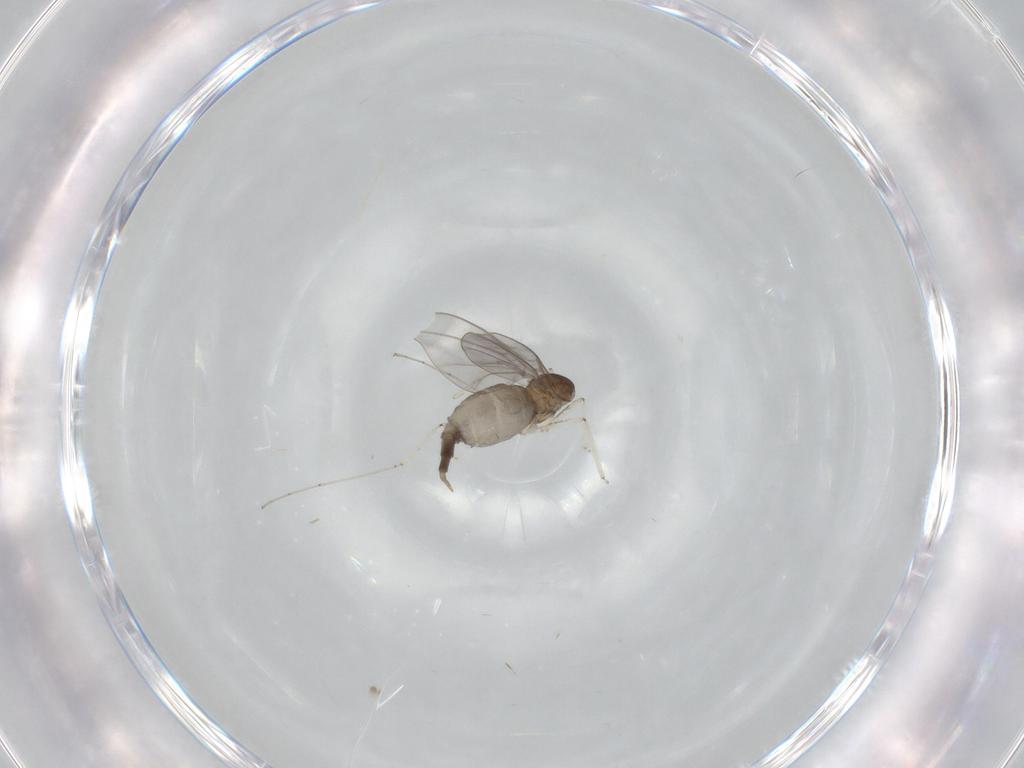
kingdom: Animalia
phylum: Arthropoda
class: Insecta
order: Diptera
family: Cecidomyiidae
